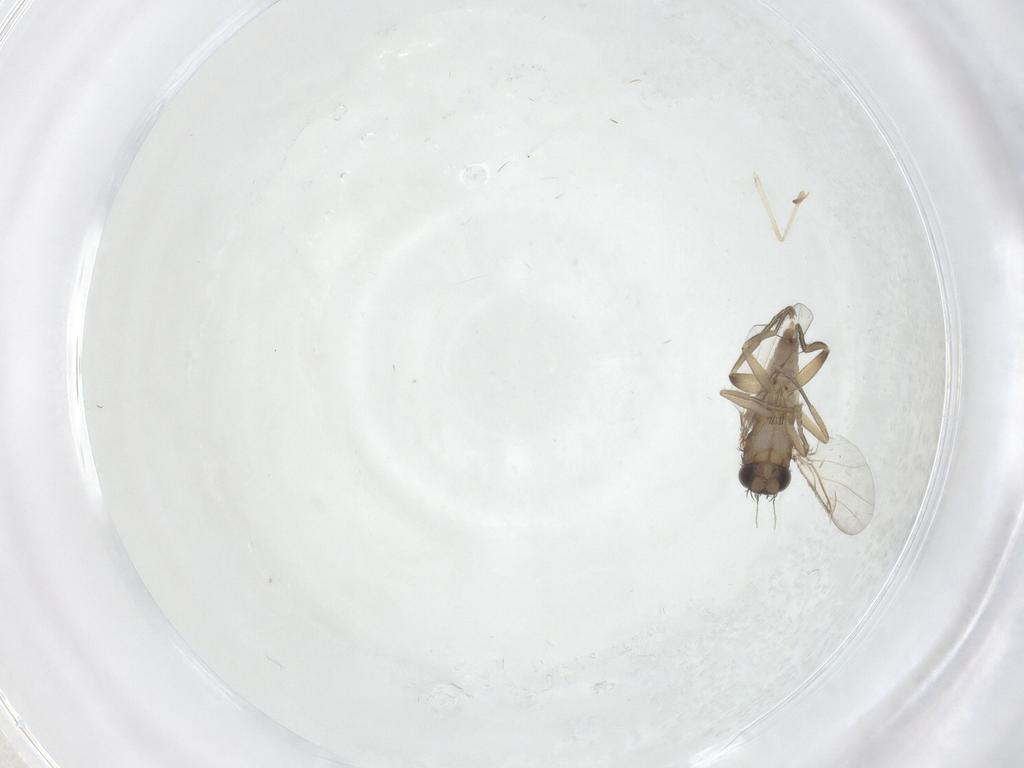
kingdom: Animalia
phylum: Arthropoda
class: Insecta
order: Diptera
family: Phoridae
